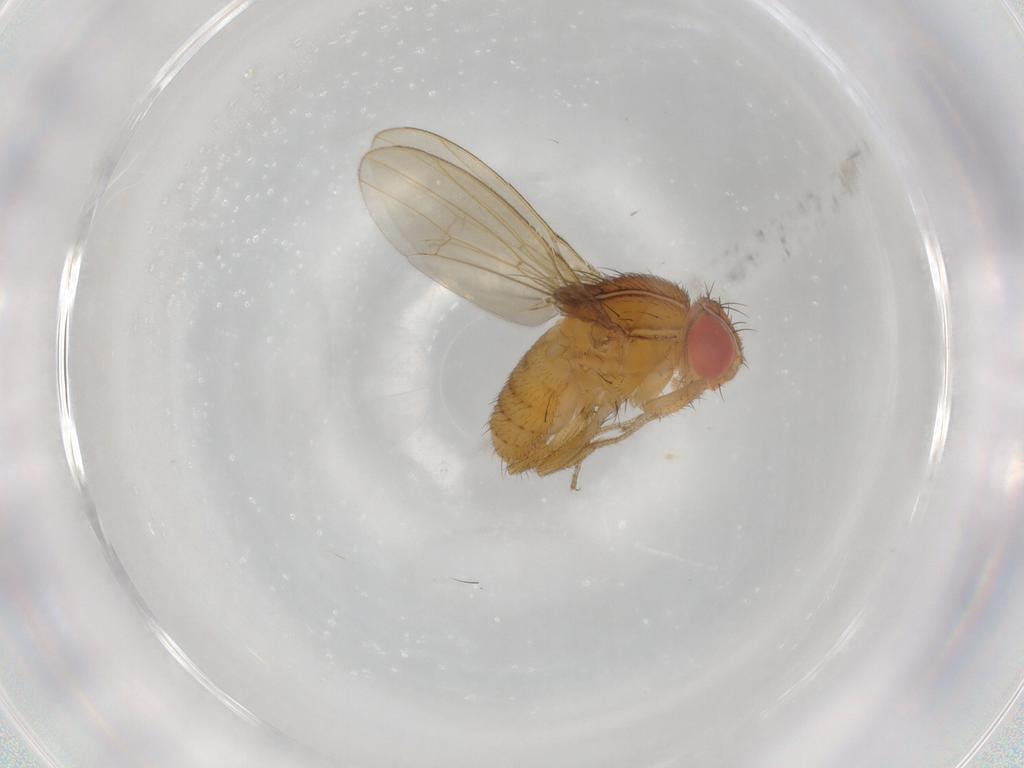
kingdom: Animalia
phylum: Arthropoda
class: Insecta
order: Diptera
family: Drosophilidae
